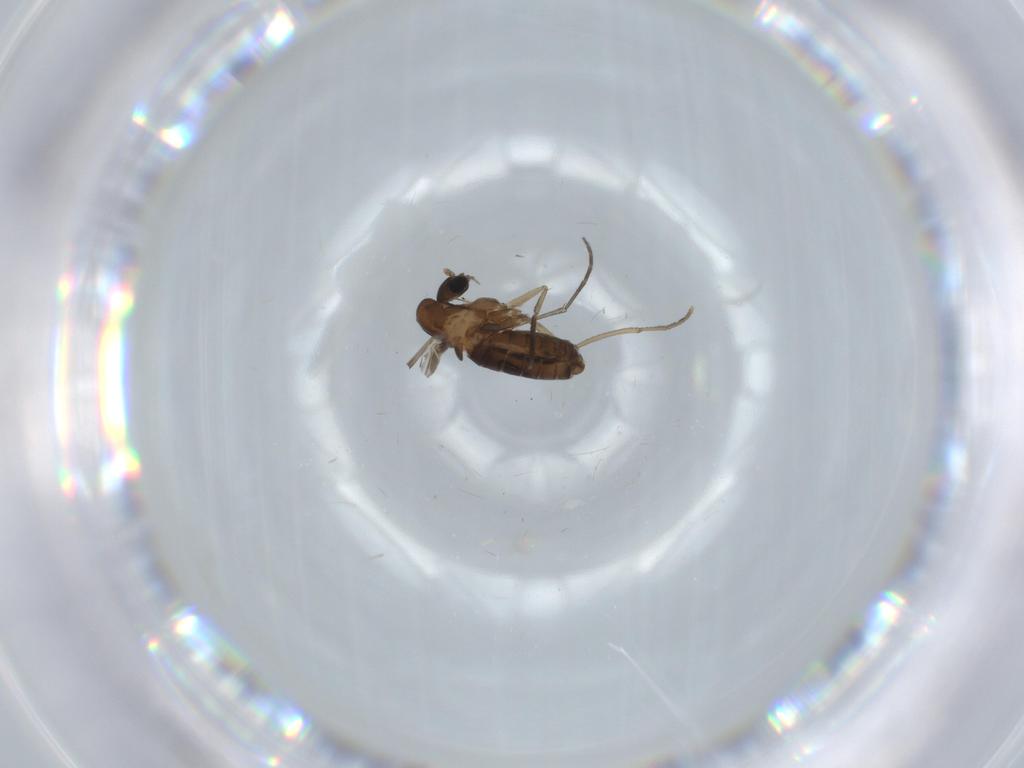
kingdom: Animalia
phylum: Arthropoda
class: Insecta
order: Diptera
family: Psychodidae
